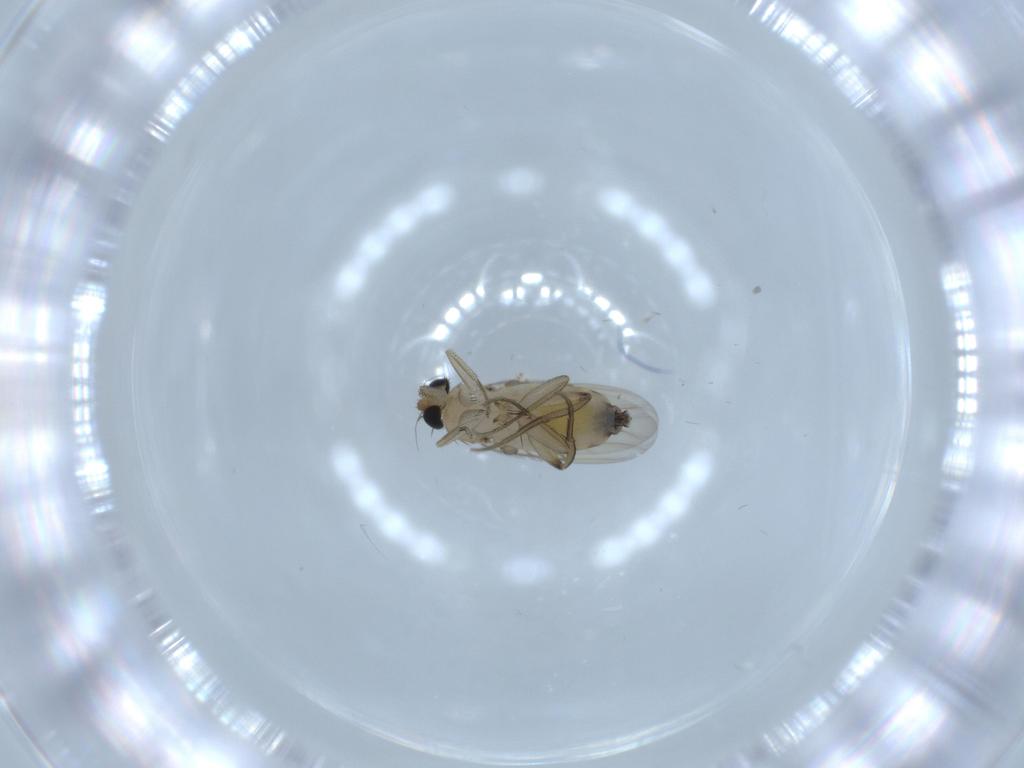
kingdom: Animalia
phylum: Arthropoda
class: Insecta
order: Diptera
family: Phoridae
